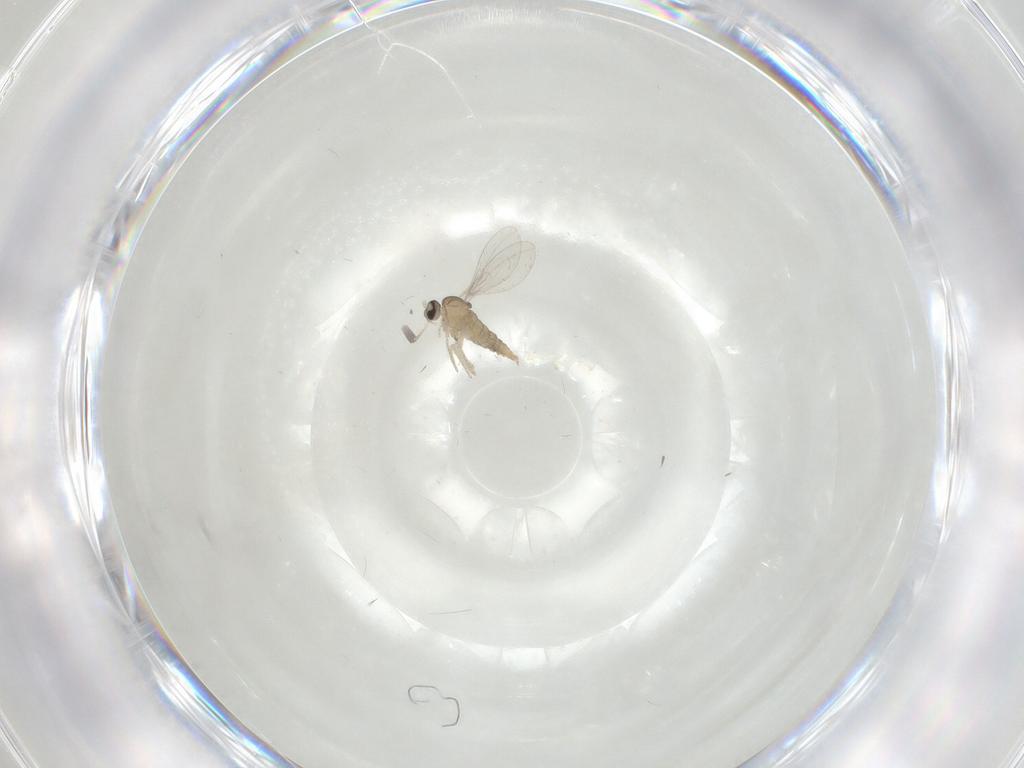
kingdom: Animalia
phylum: Arthropoda
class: Insecta
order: Diptera
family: Cecidomyiidae
